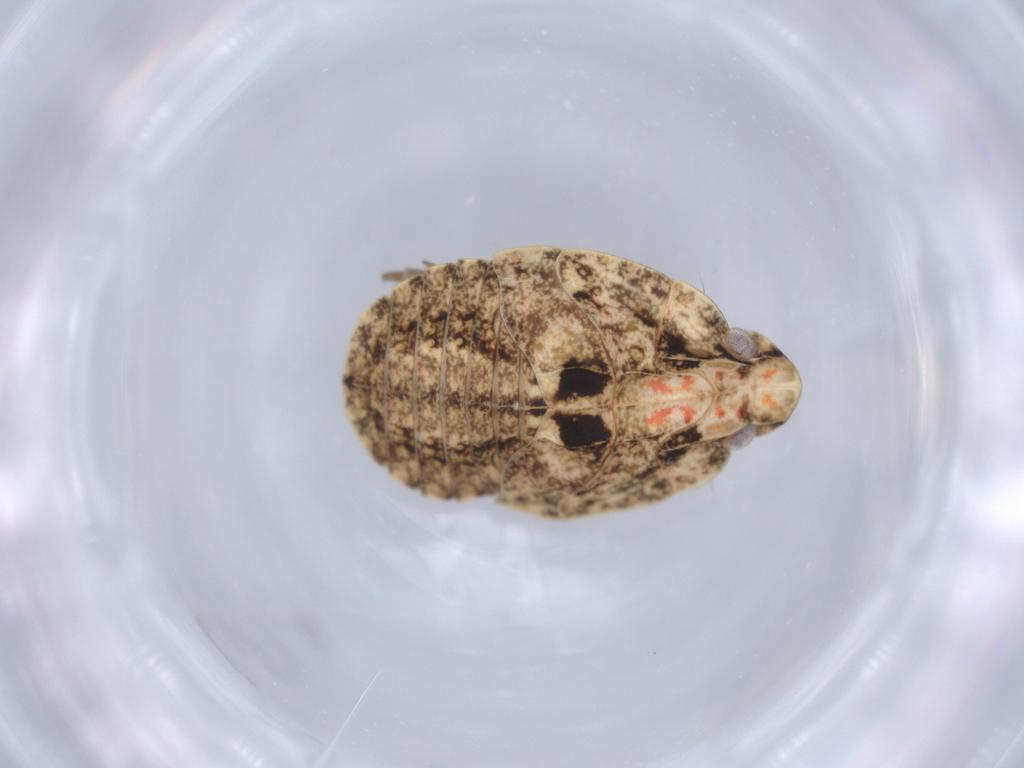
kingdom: Animalia
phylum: Arthropoda
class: Insecta
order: Hemiptera
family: Flatidae
